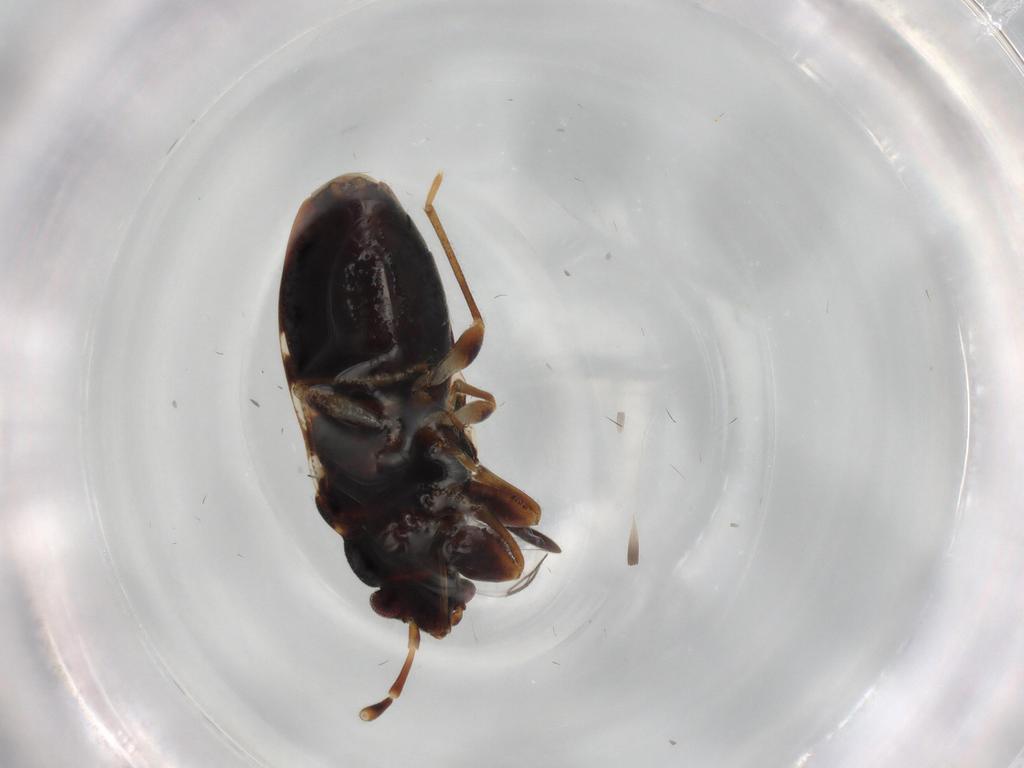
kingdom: Animalia
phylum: Arthropoda
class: Insecta
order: Hemiptera
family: Rhyparochromidae
